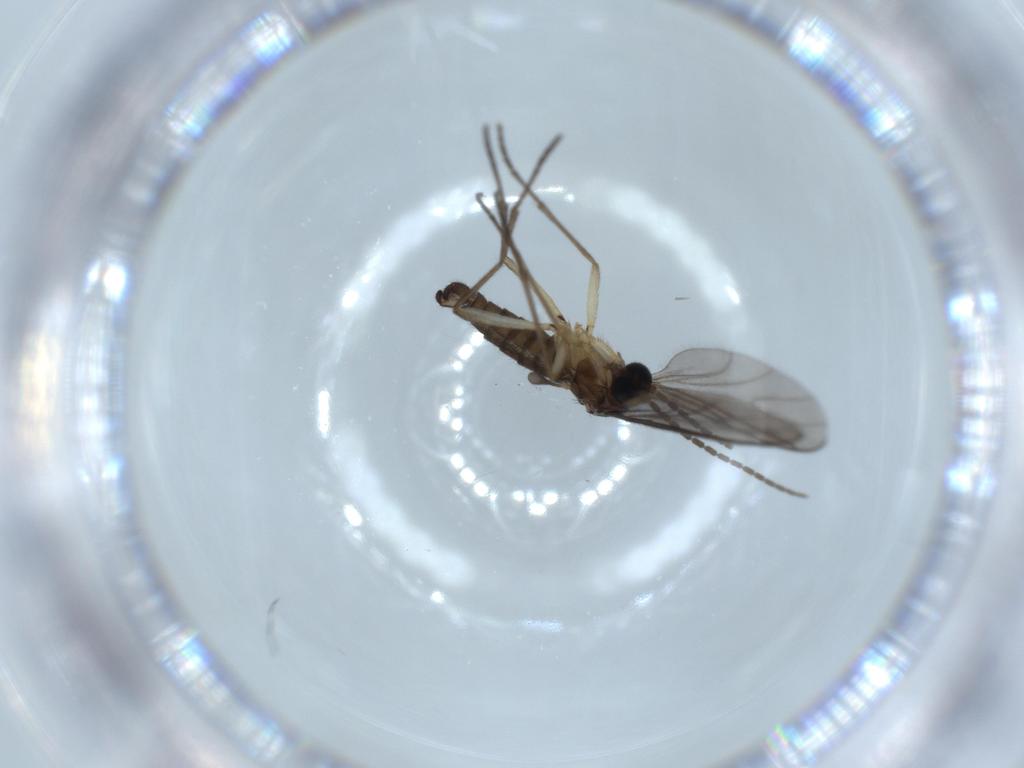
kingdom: Animalia
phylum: Arthropoda
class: Insecta
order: Diptera
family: Sciaridae
